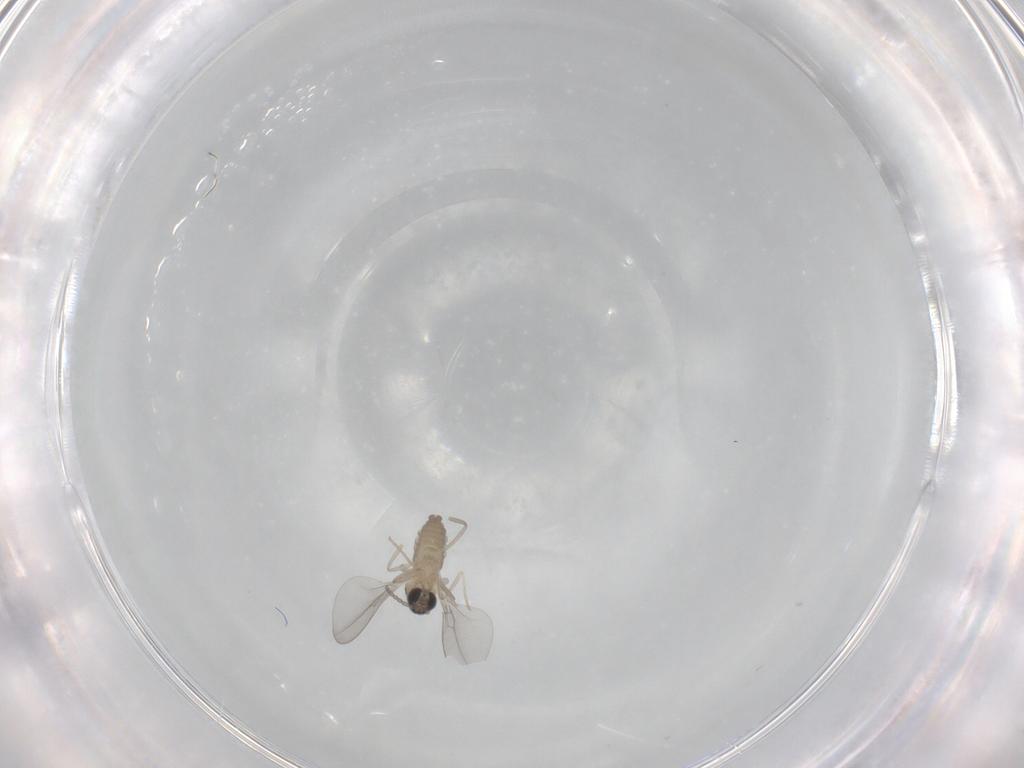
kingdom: Animalia
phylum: Arthropoda
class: Insecta
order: Diptera
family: Cecidomyiidae
